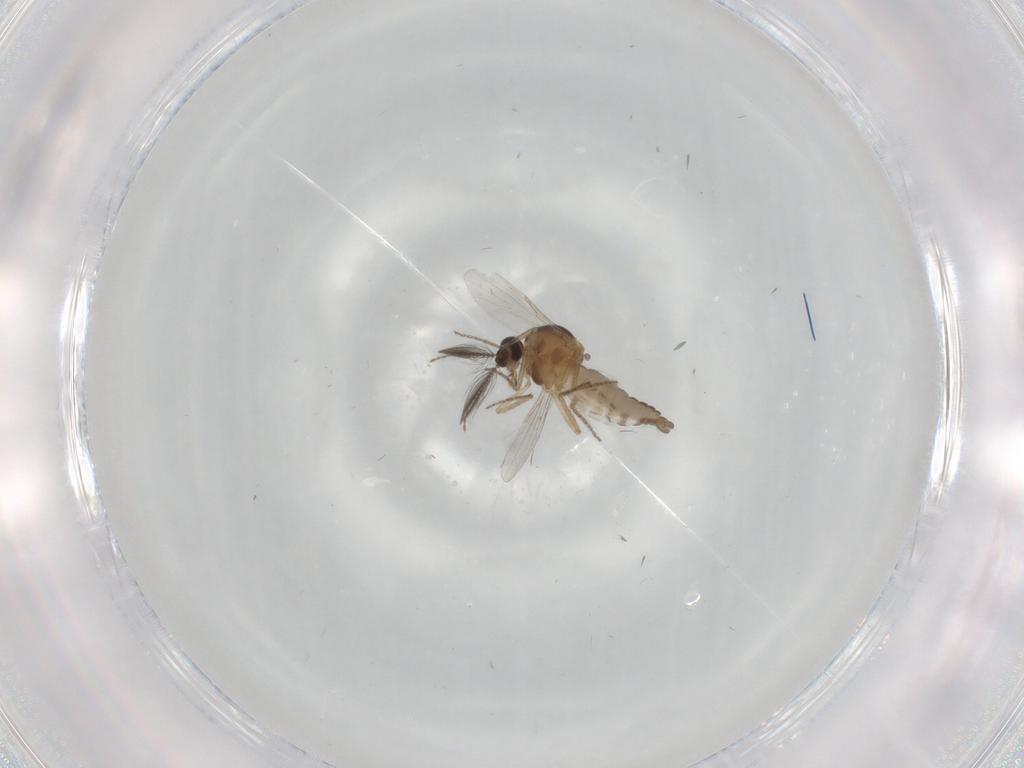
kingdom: Animalia
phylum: Arthropoda
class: Insecta
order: Diptera
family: Ceratopogonidae
